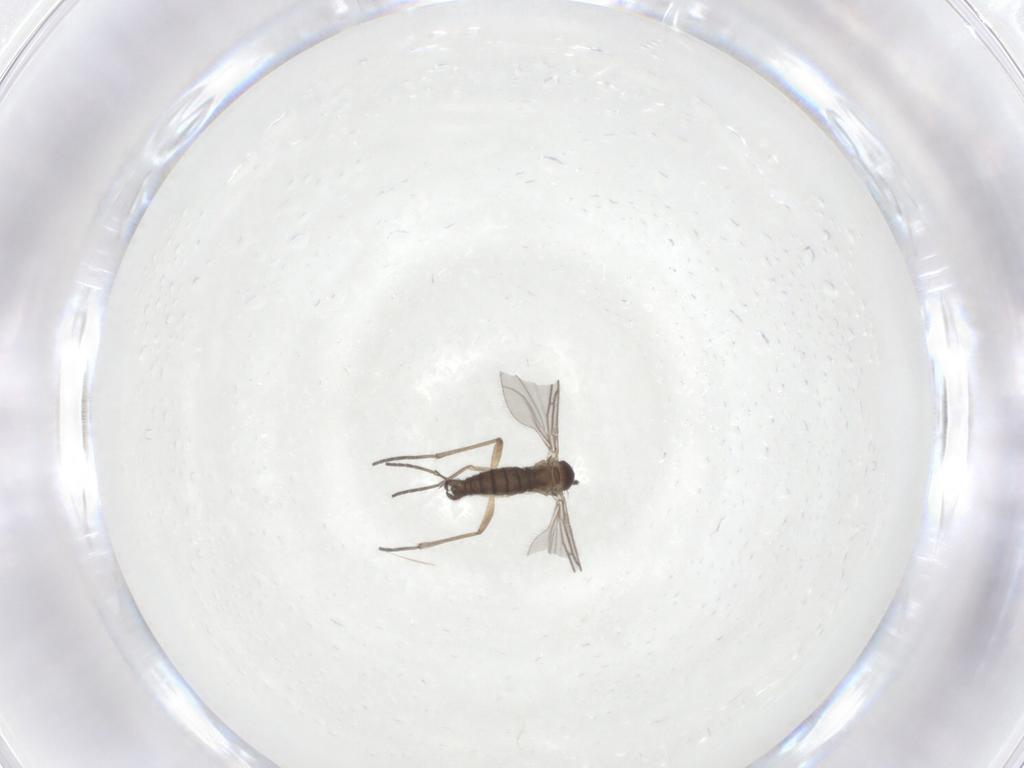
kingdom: Animalia
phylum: Arthropoda
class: Insecta
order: Diptera
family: Sciaridae
